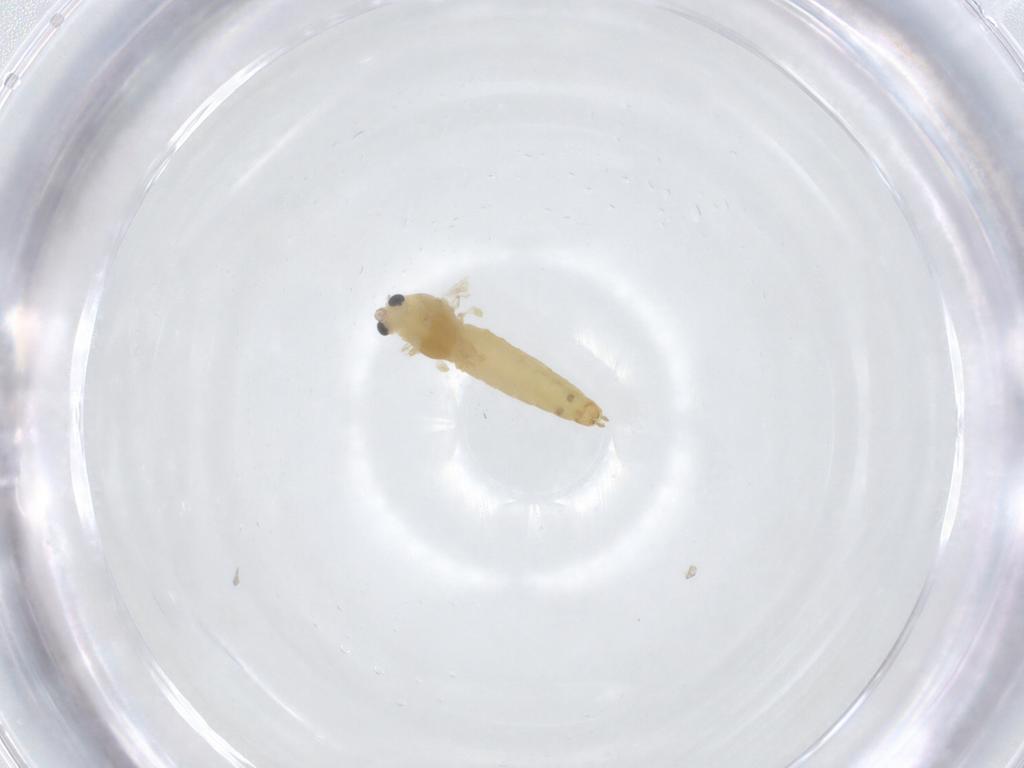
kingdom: Animalia
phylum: Arthropoda
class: Insecta
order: Diptera
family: Chironomidae
